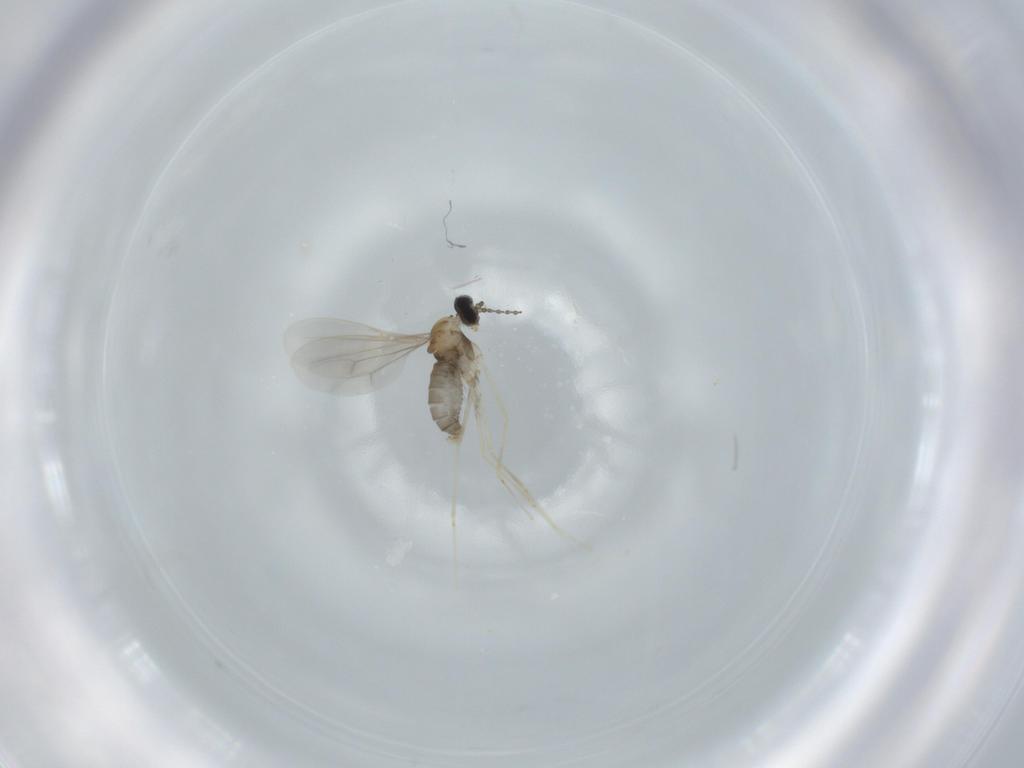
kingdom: Animalia
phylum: Arthropoda
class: Insecta
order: Diptera
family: Cecidomyiidae
